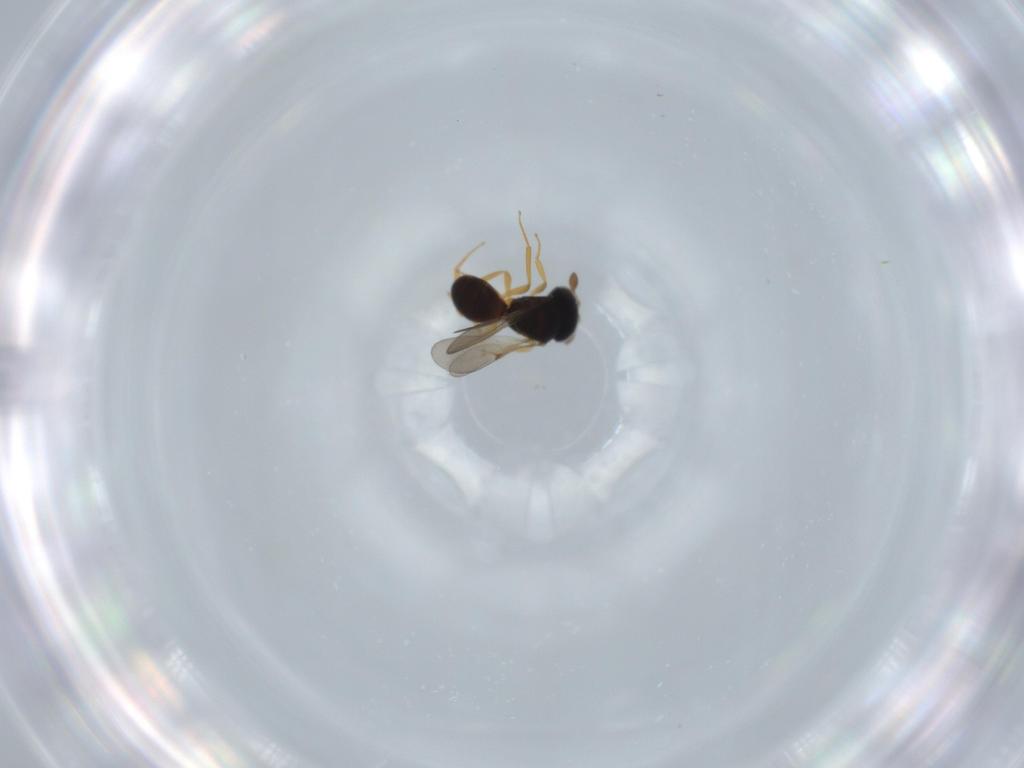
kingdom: Animalia
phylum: Arthropoda
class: Insecta
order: Hymenoptera
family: Scelionidae
